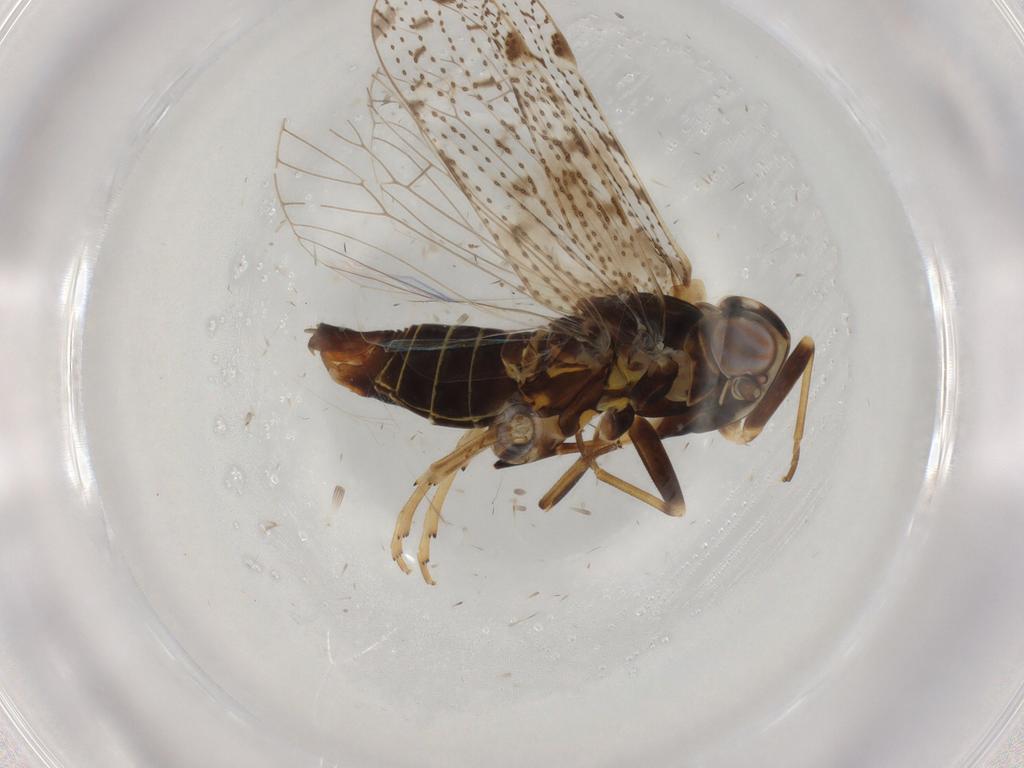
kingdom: Animalia
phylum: Arthropoda
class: Insecta
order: Hemiptera
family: Cixiidae
